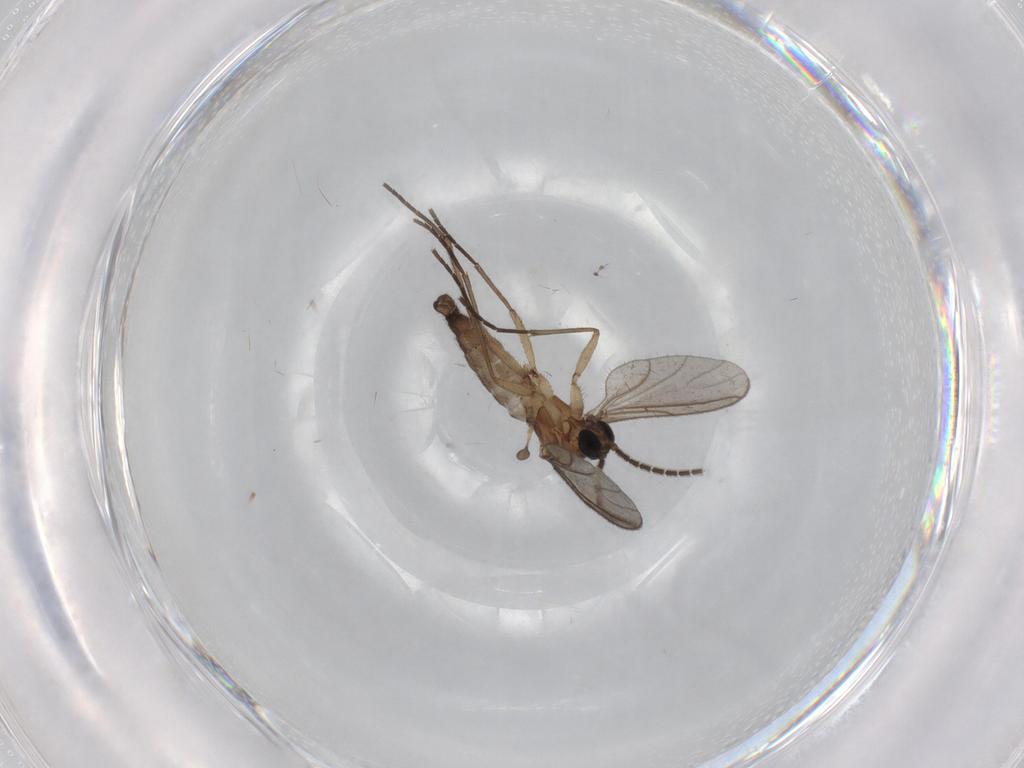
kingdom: Animalia
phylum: Arthropoda
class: Insecta
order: Diptera
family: Sciaridae
